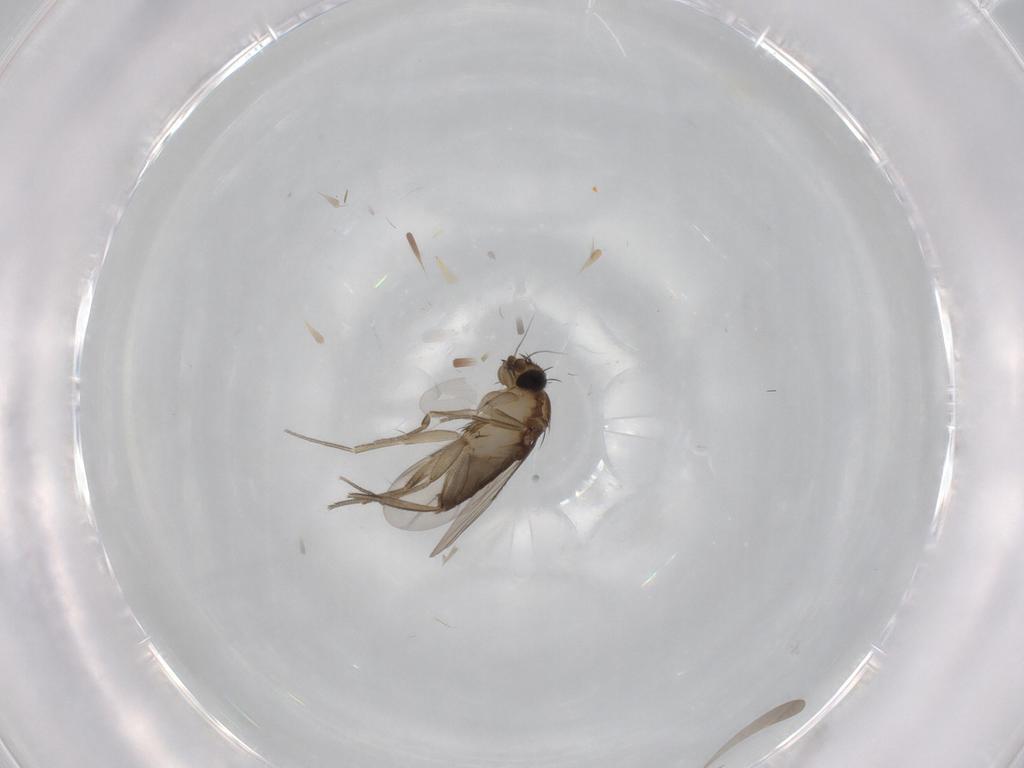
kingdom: Animalia
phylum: Arthropoda
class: Insecta
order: Diptera
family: Phoridae
